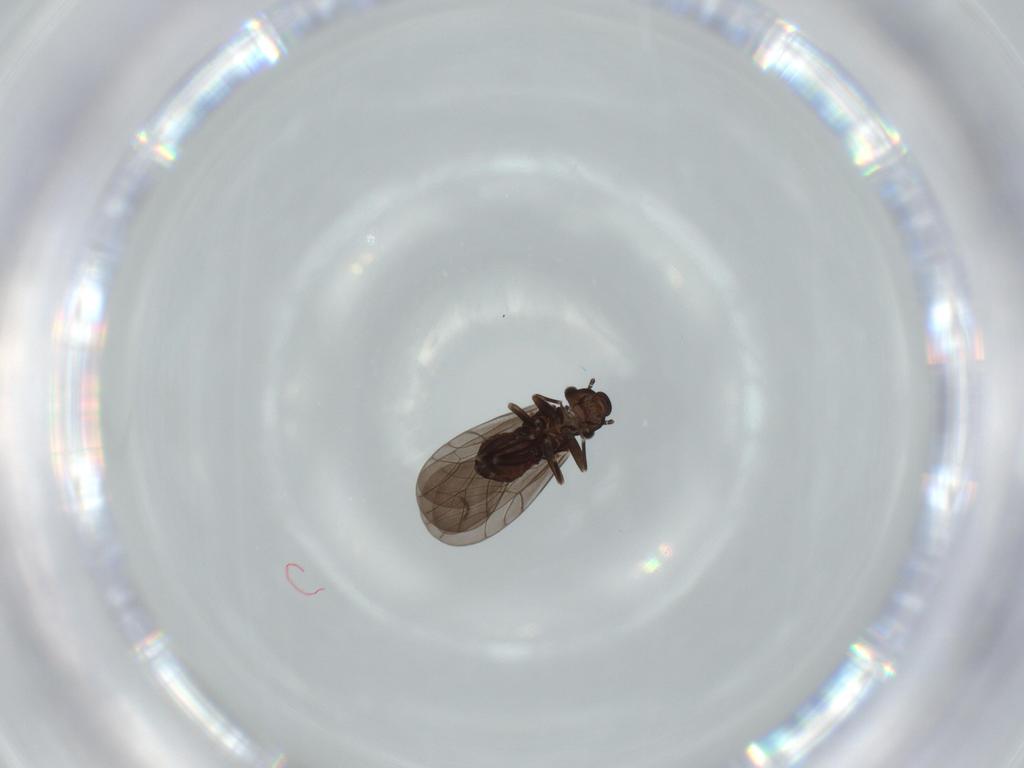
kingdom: Animalia
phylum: Arthropoda
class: Insecta
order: Psocodea
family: Lepidopsocidae
